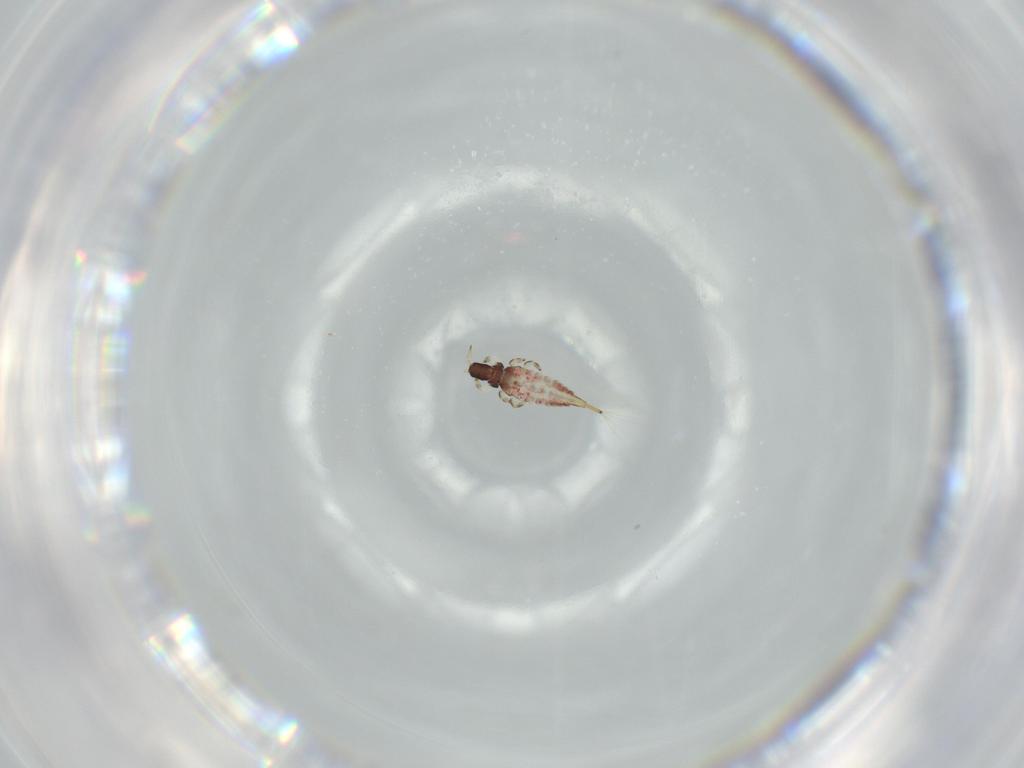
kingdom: Animalia
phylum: Arthropoda
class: Insecta
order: Thysanoptera
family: Phlaeothripidae
